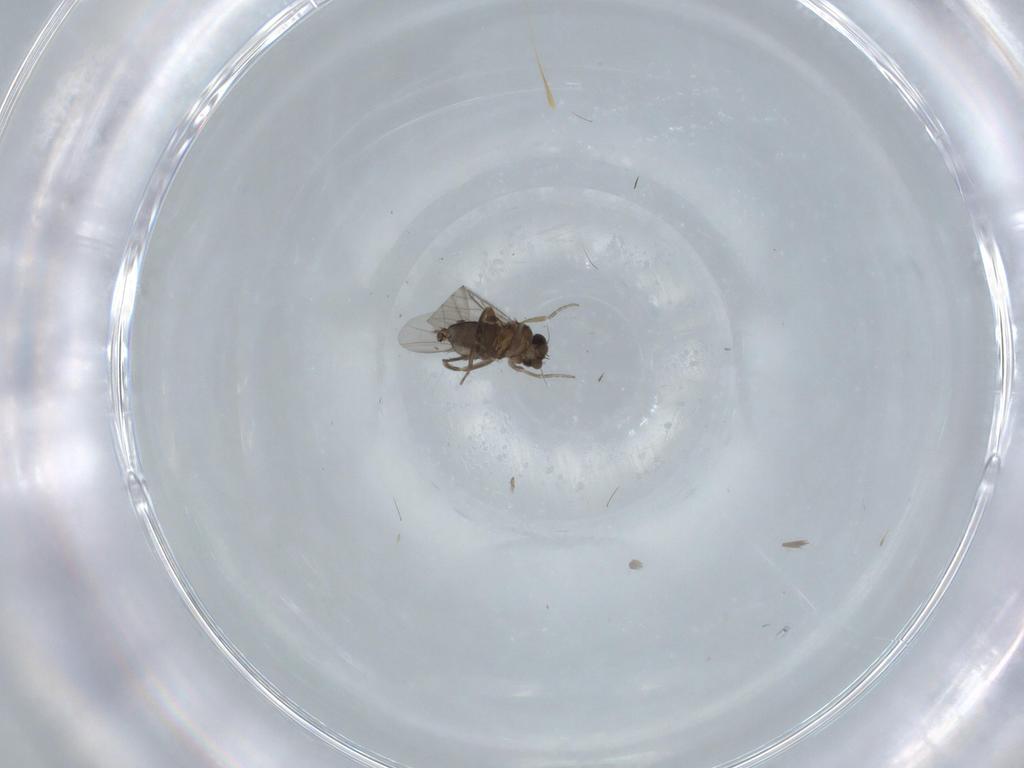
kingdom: Animalia
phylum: Arthropoda
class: Insecta
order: Diptera
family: Phoridae
